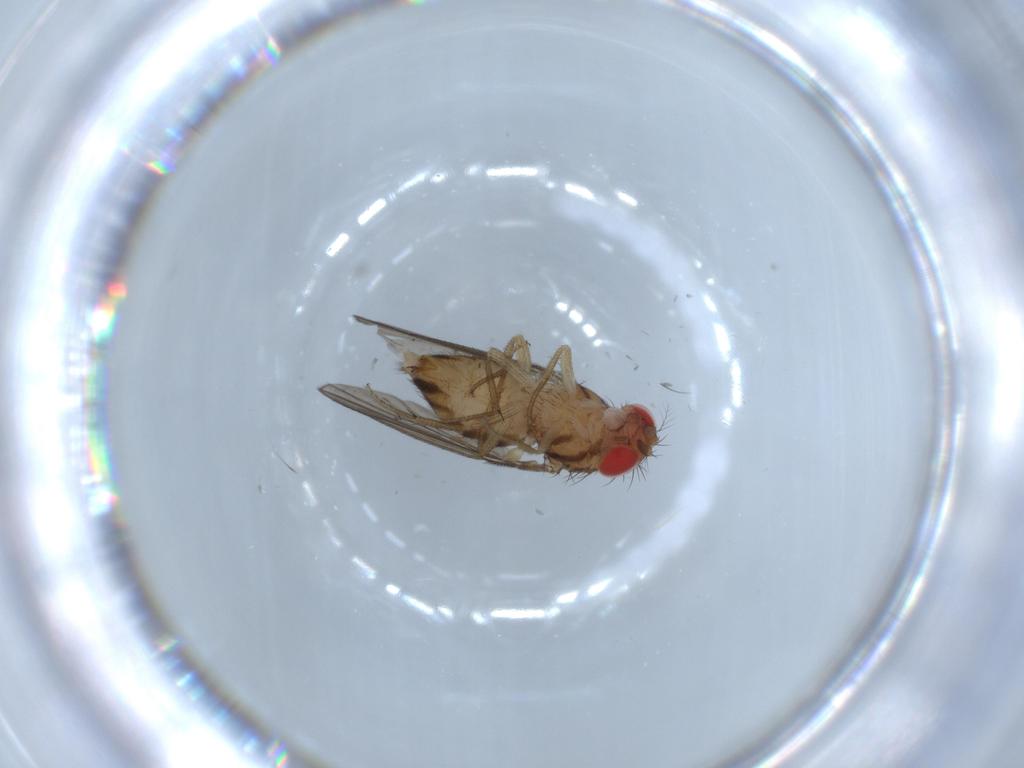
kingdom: Animalia
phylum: Arthropoda
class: Insecta
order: Diptera
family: Drosophilidae
